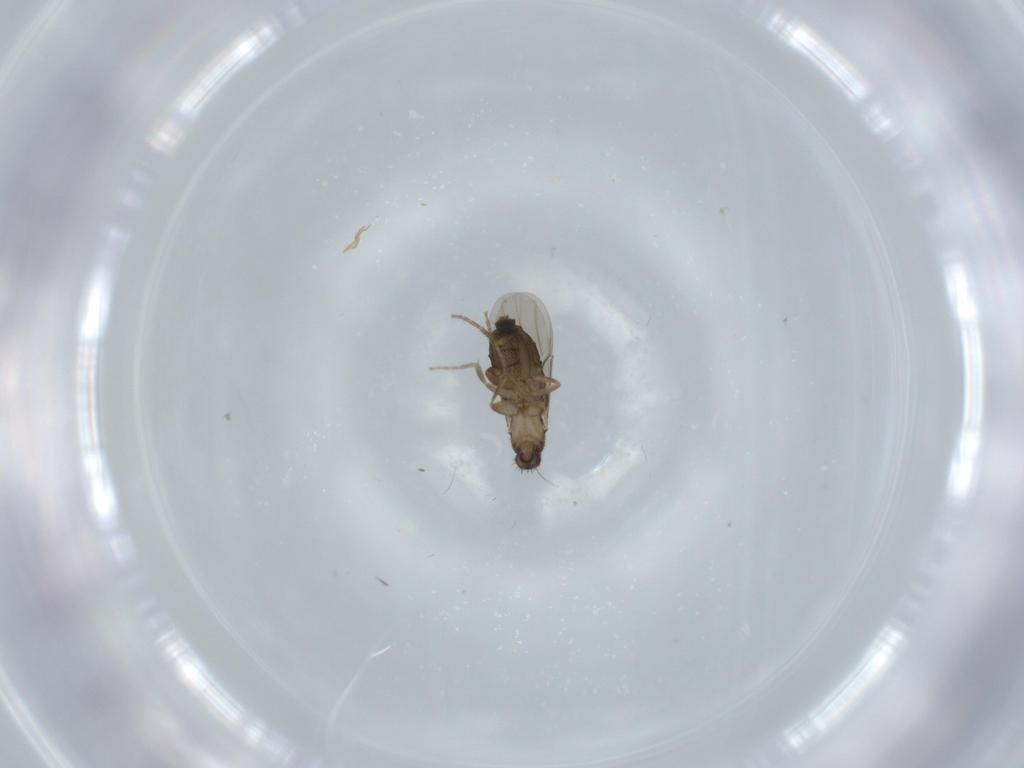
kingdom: Animalia
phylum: Arthropoda
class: Insecta
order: Diptera
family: Phoridae
